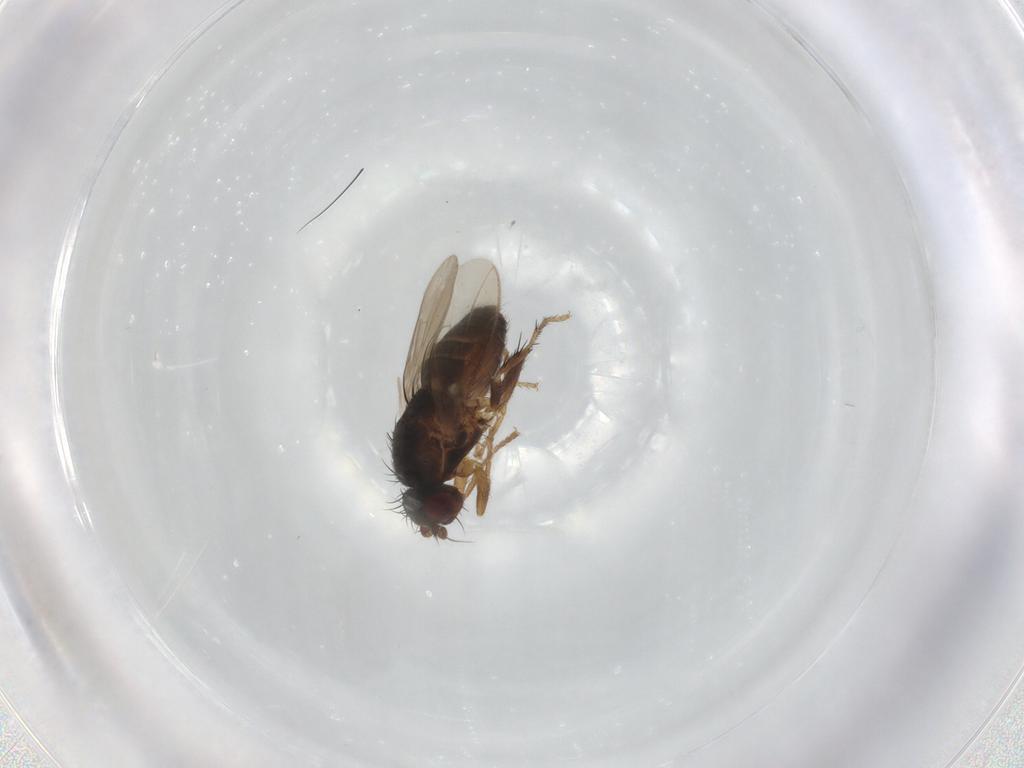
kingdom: Animalia
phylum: Arthropoda
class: Insecta
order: Diptera
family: Sphaeroceridae
